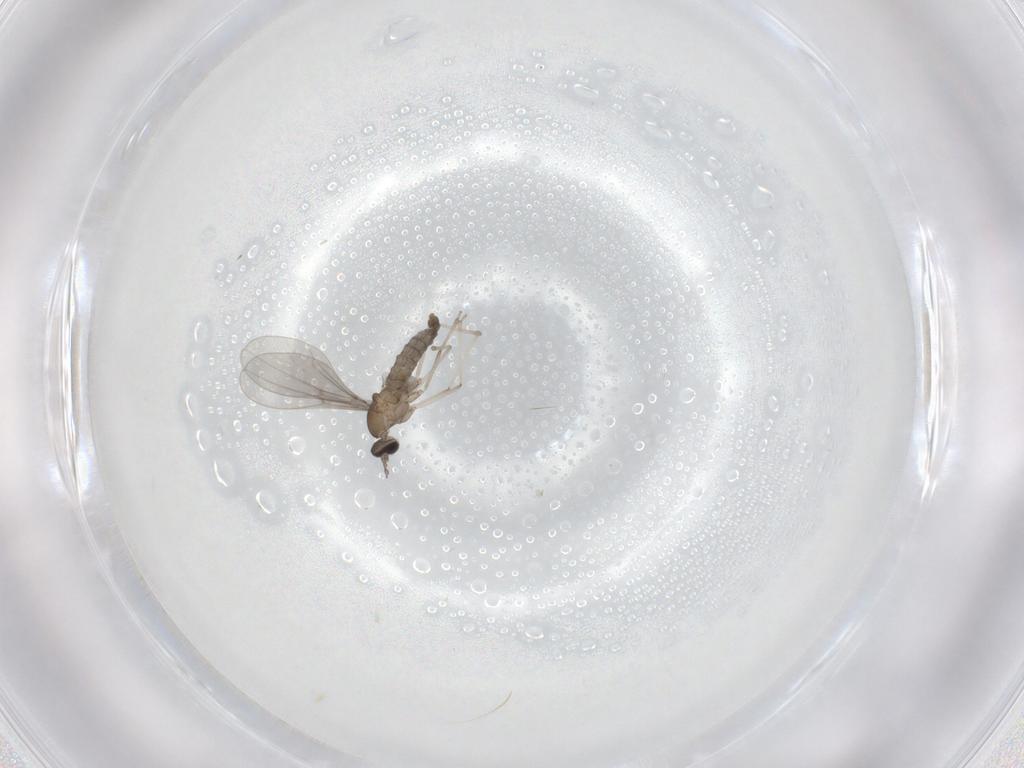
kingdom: Animalia
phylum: Arthropoda
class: Insecta
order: Diptera
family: Cecidomyiidae
